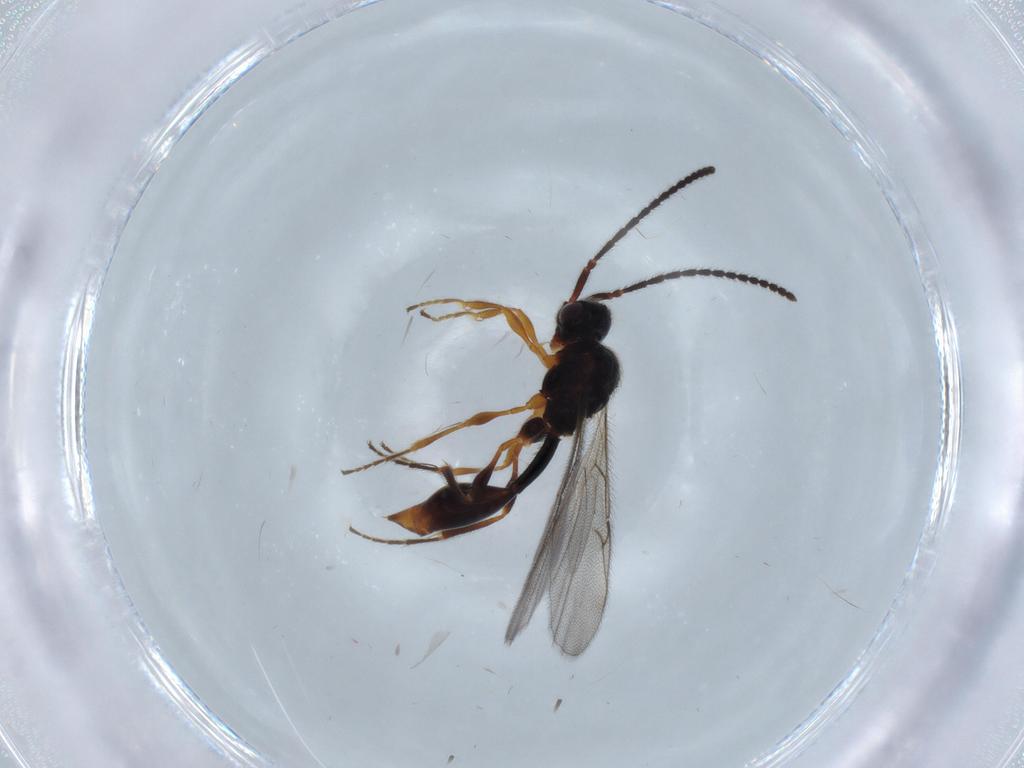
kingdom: Animalia
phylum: Arthropoda
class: Insecta
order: Hymenoptera
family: Diapriidae
